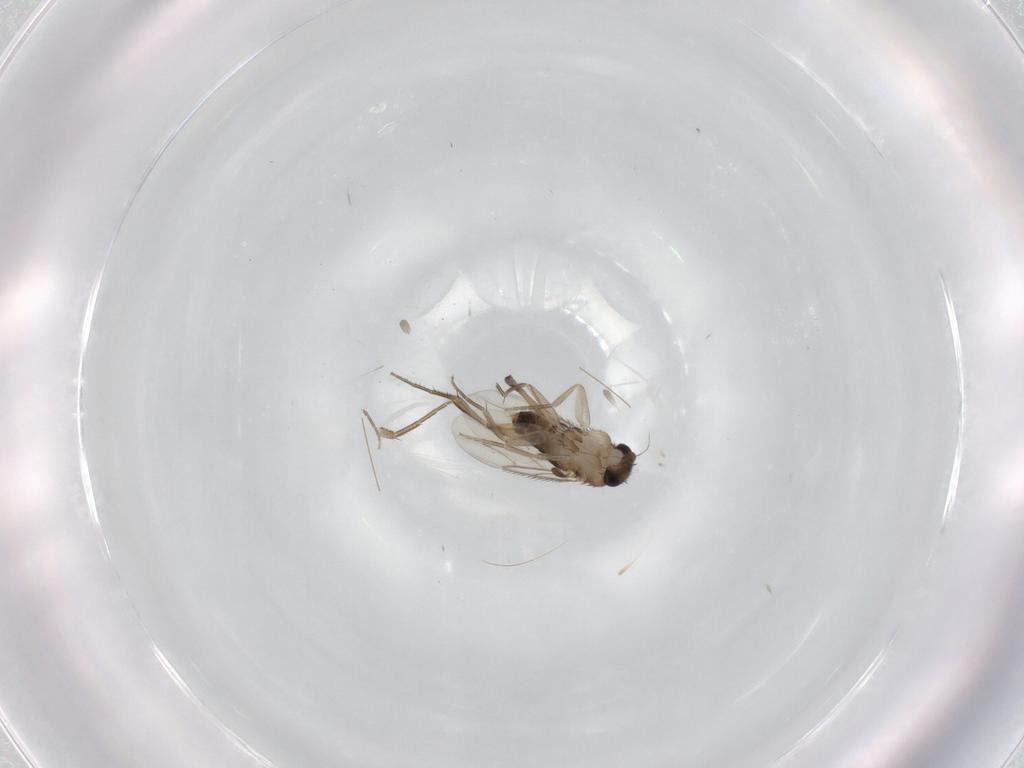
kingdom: Animalia
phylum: Arthropoda
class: Insecta
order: Diptera
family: Phoridae
